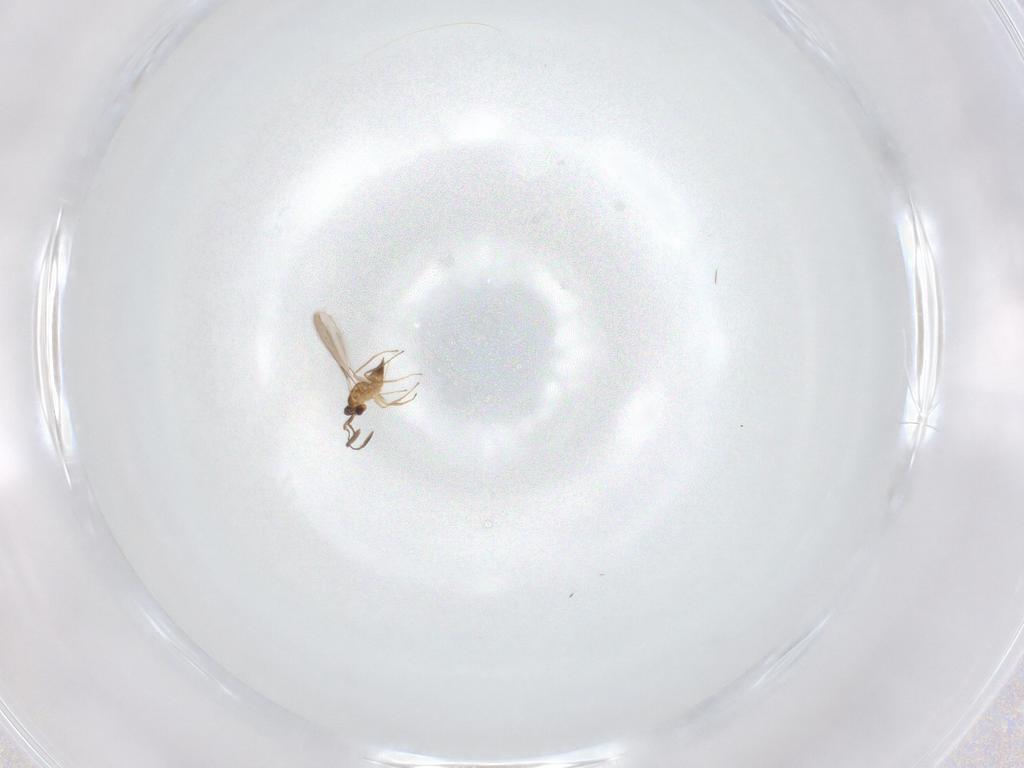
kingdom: Animalia
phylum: Arthropoda
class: Insecta
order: Hymenoptera
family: Mymaridae
